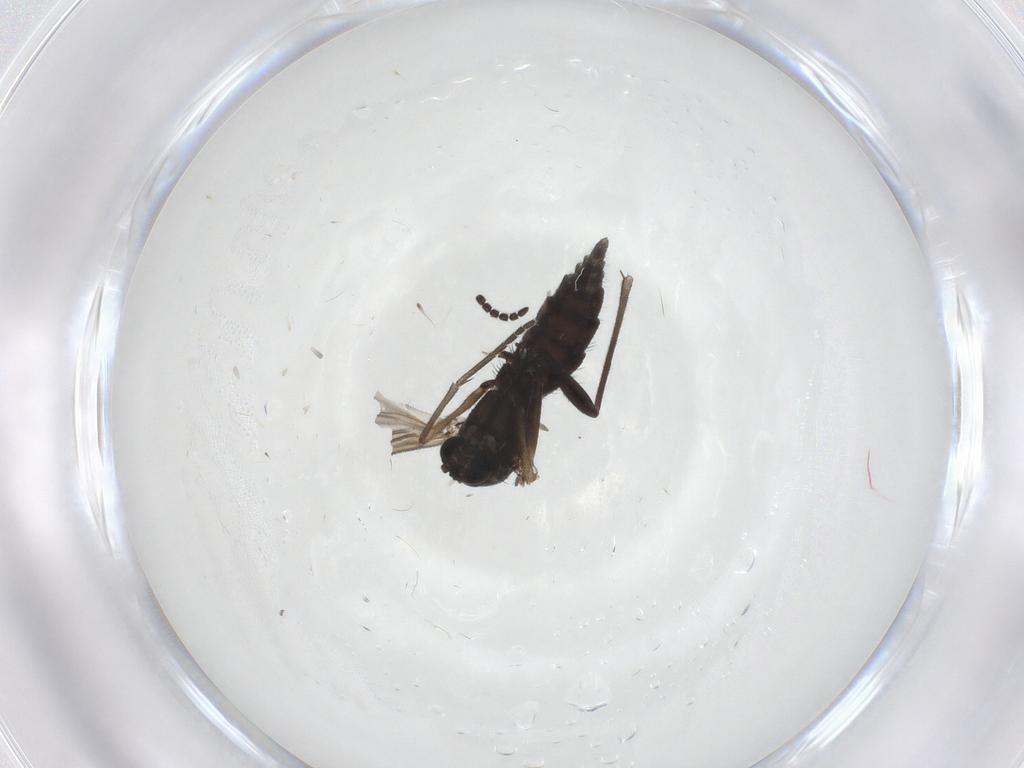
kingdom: Animalia
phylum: Arthropoda
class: Insecta
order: Diptera
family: Sciaridae
